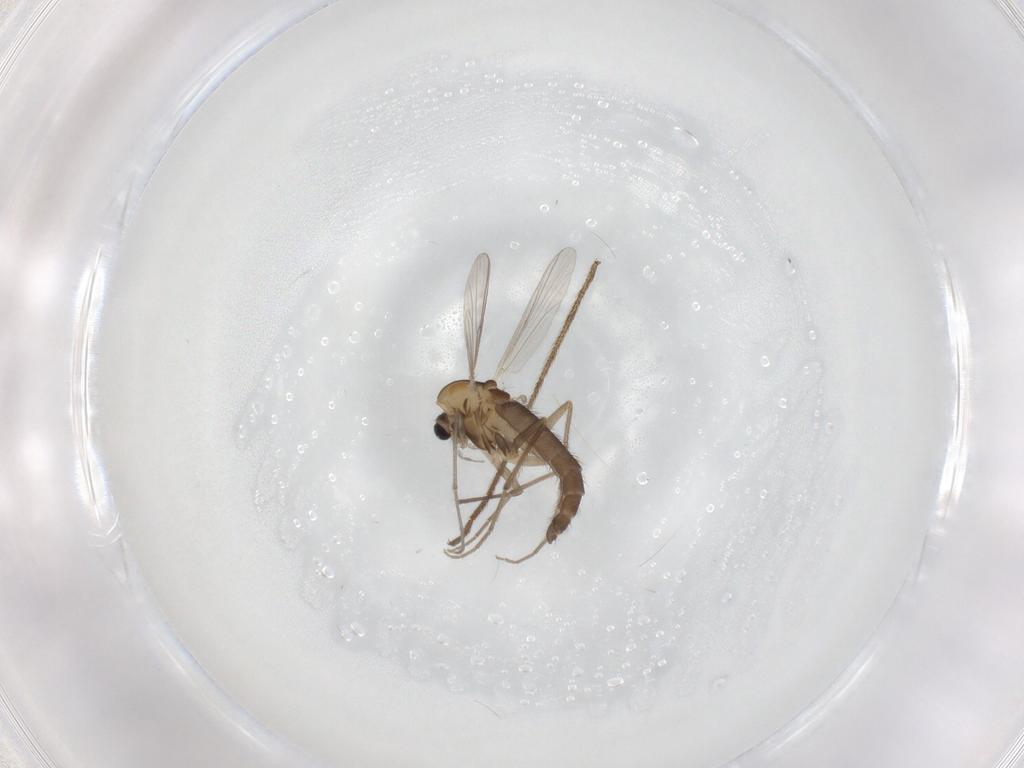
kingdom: Animalia
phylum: Arthropoda
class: Insecta
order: Diptera
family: Chironomidae
